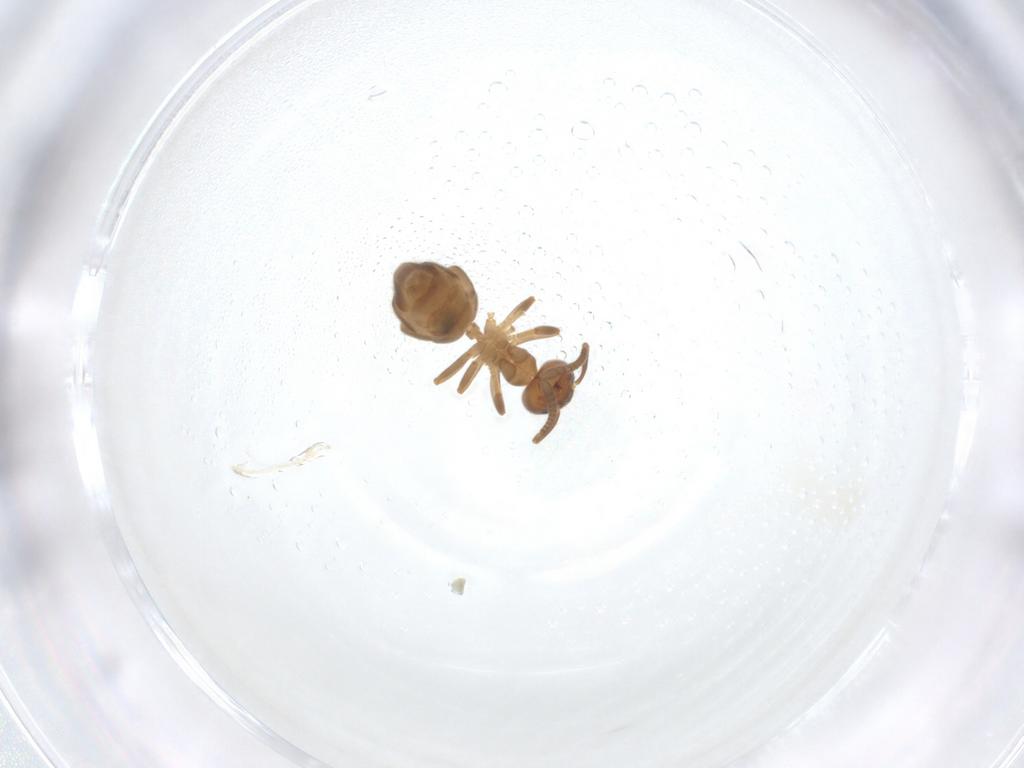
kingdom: Animalia
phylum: Arthropoda
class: Insecta
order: Hymenoptera
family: Formicidae
